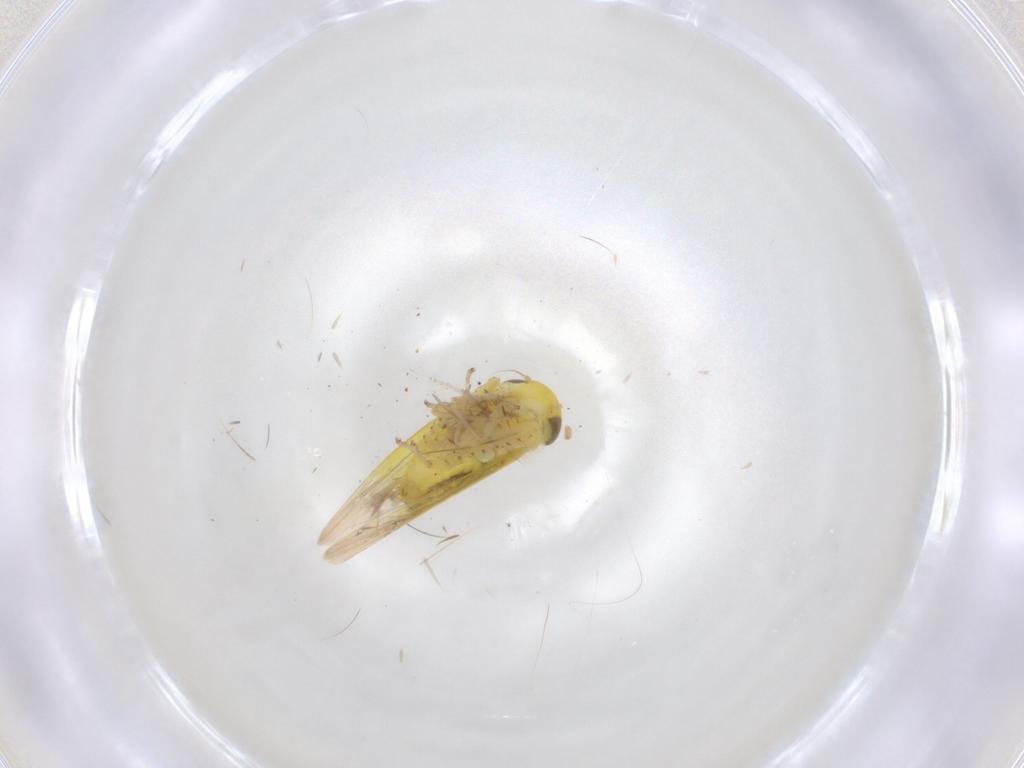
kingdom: Animalia
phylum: Arthropoda
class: Insecta
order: Hemiptera
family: Cicadellidae
